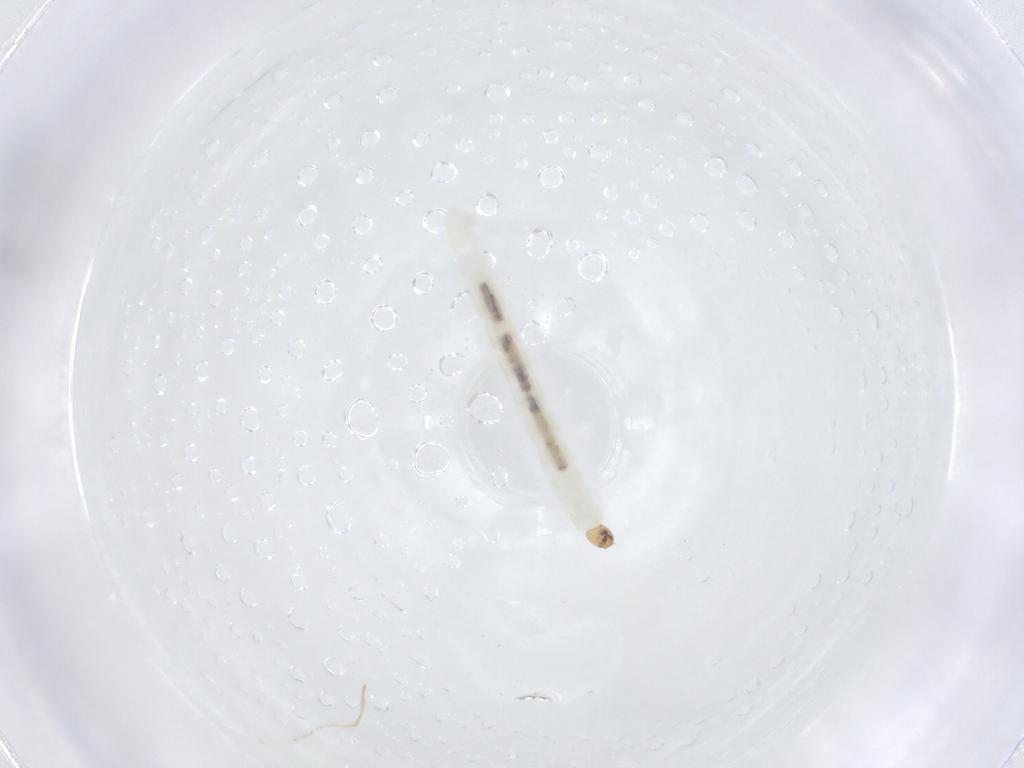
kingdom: Animalia
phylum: Arthropoda
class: Insecta
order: Diptera
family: Chironomidae
